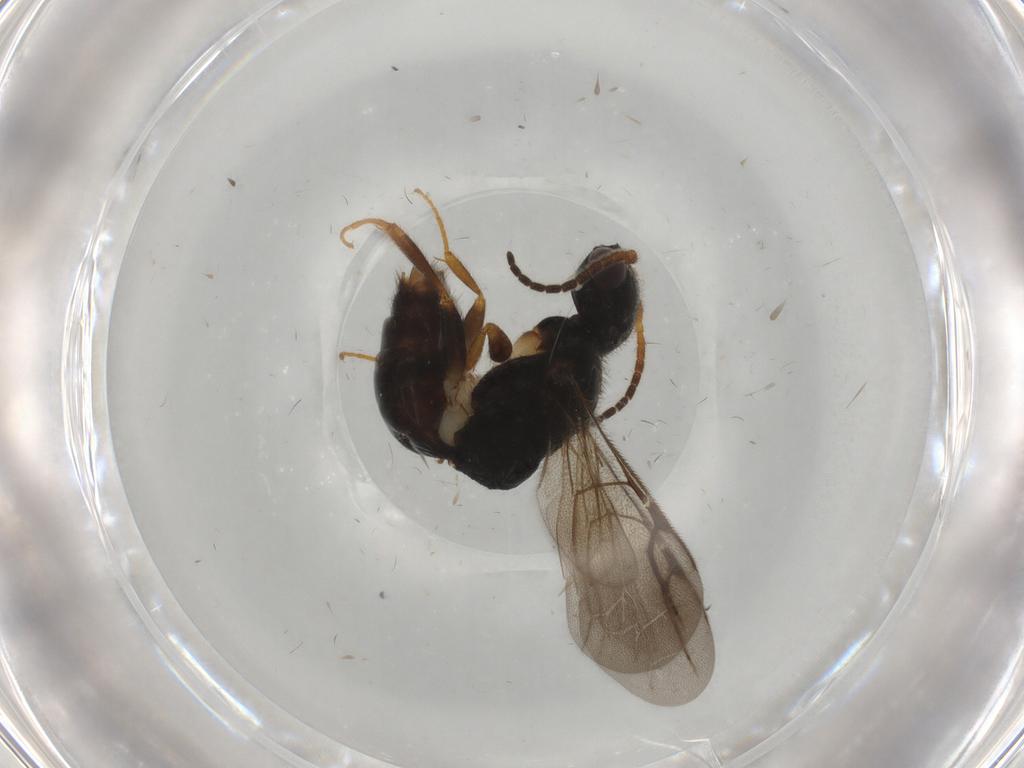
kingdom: Animalia
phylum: Arthropoda
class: Insecta
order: Hymenoptera
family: Bethylidae
